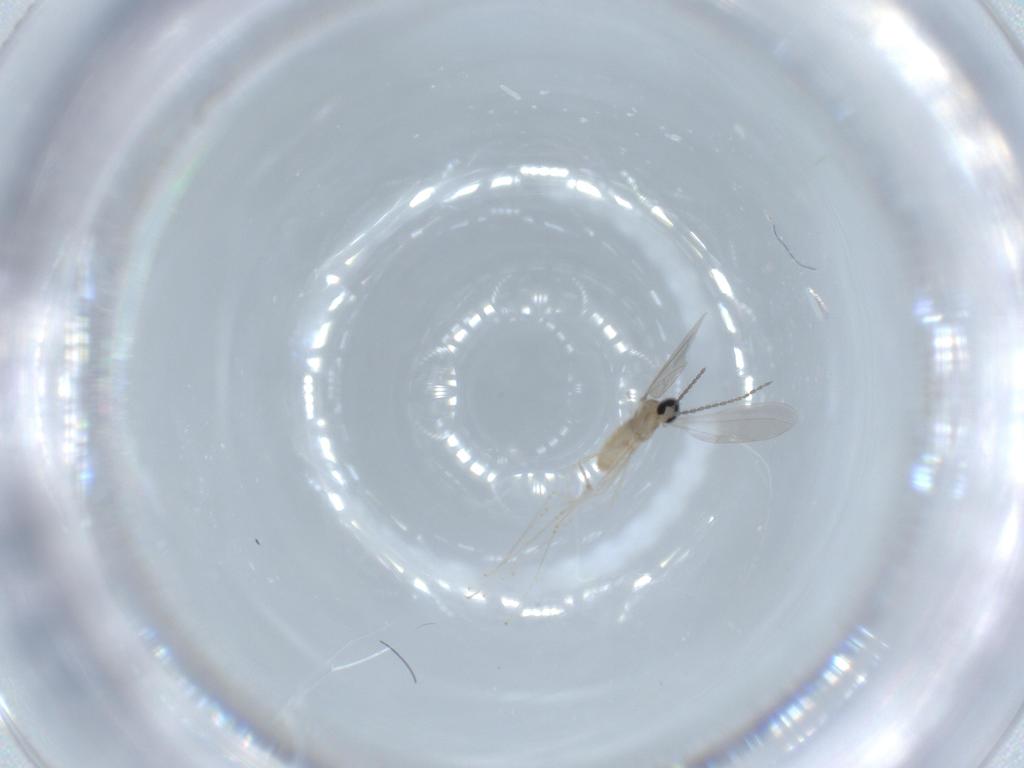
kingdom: Animalia
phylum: Arthropoda
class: Insecta
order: Diptera
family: Cecidomyiidae
